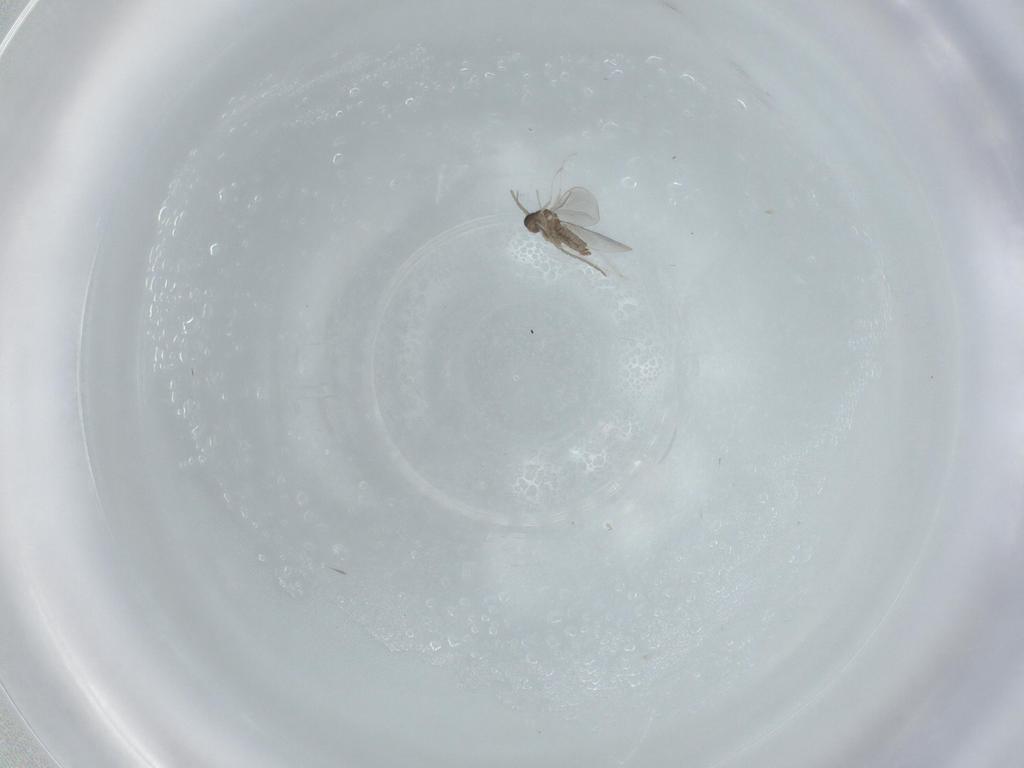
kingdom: Animalia
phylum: Arthropoda
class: Insecta
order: Diptera
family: Cecidomyiidae
